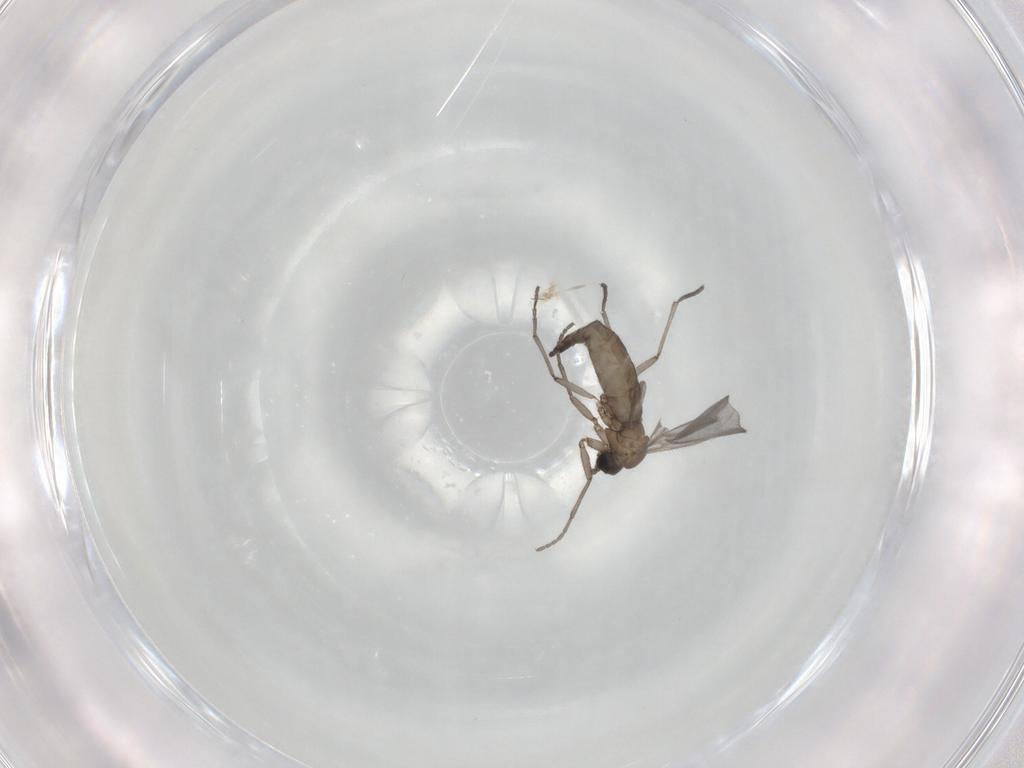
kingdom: Animalia
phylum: Arthropoda
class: Insecta
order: Diptera
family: Sciaridae
